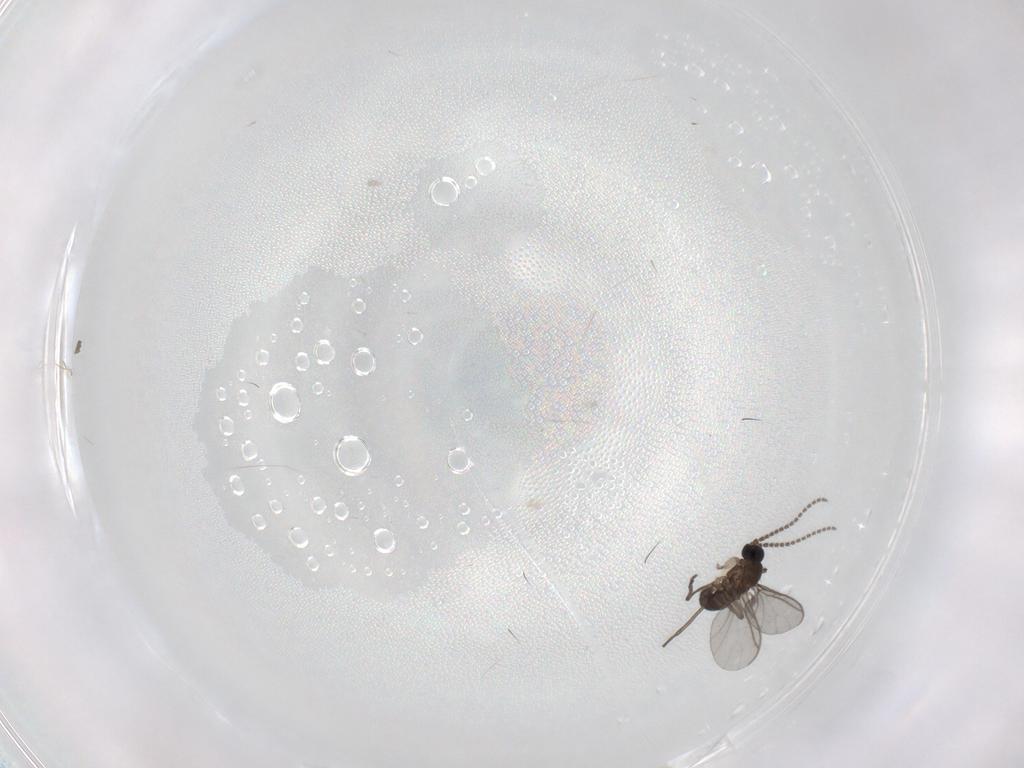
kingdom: Animalia
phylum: Arthropoda
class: Insecta
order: Diptera
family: Sciaridae
